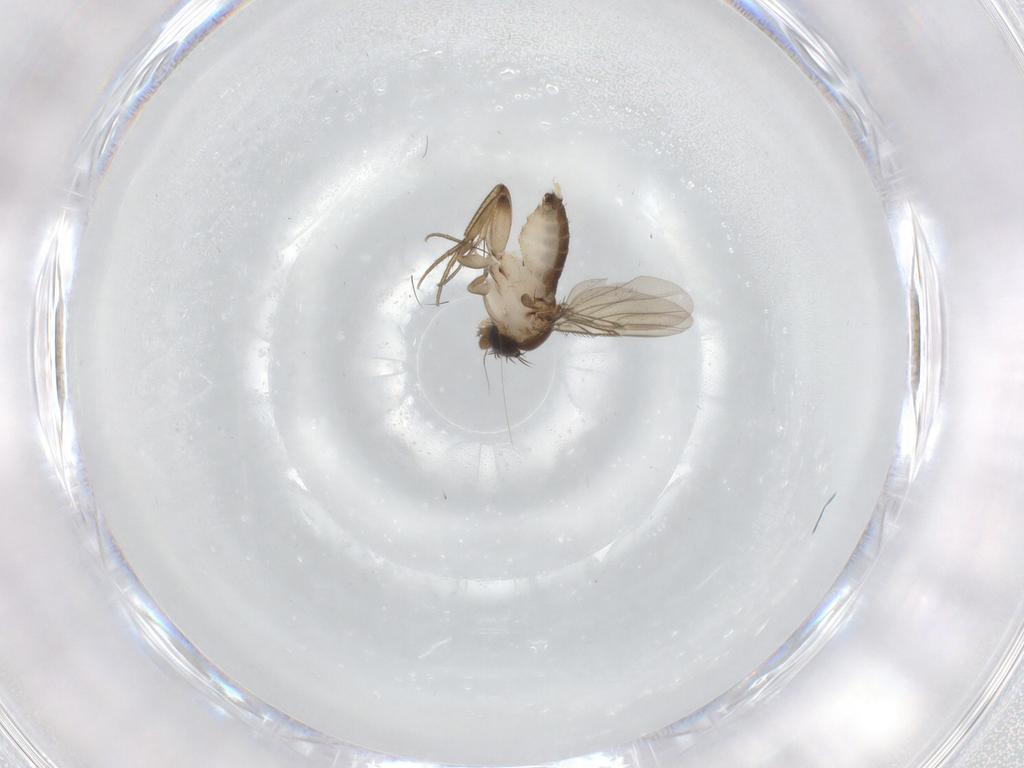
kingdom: Animalia
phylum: Arthropoda
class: Insecta
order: Diptera
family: Phoridae
